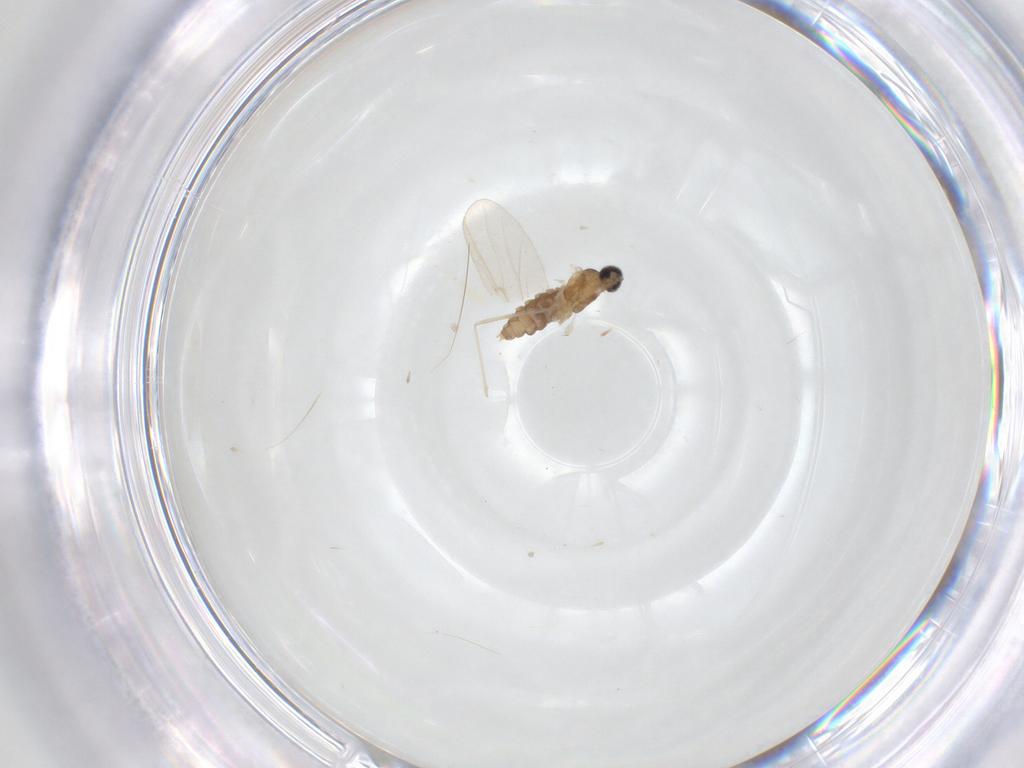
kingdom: Animalia
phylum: Arthropoda
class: Insecta
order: Diptera
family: Cecidomyiidae
